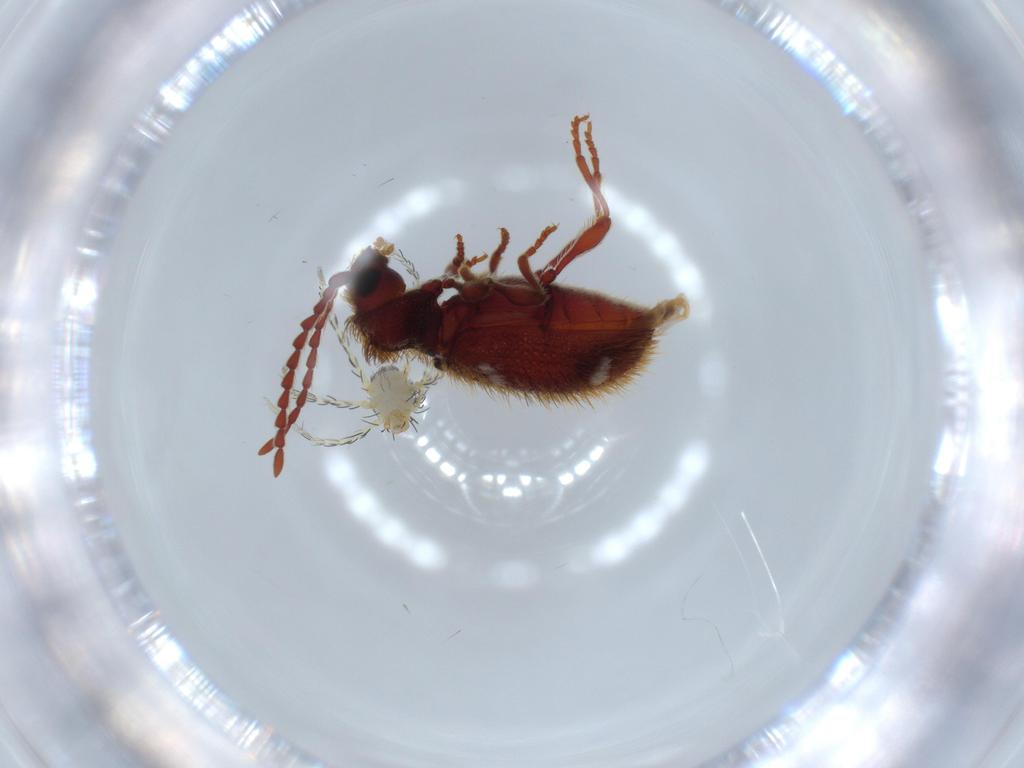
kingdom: Animalia
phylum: Arthropoda
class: Arachnida
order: Trombidiformes
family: Erythraeidae
